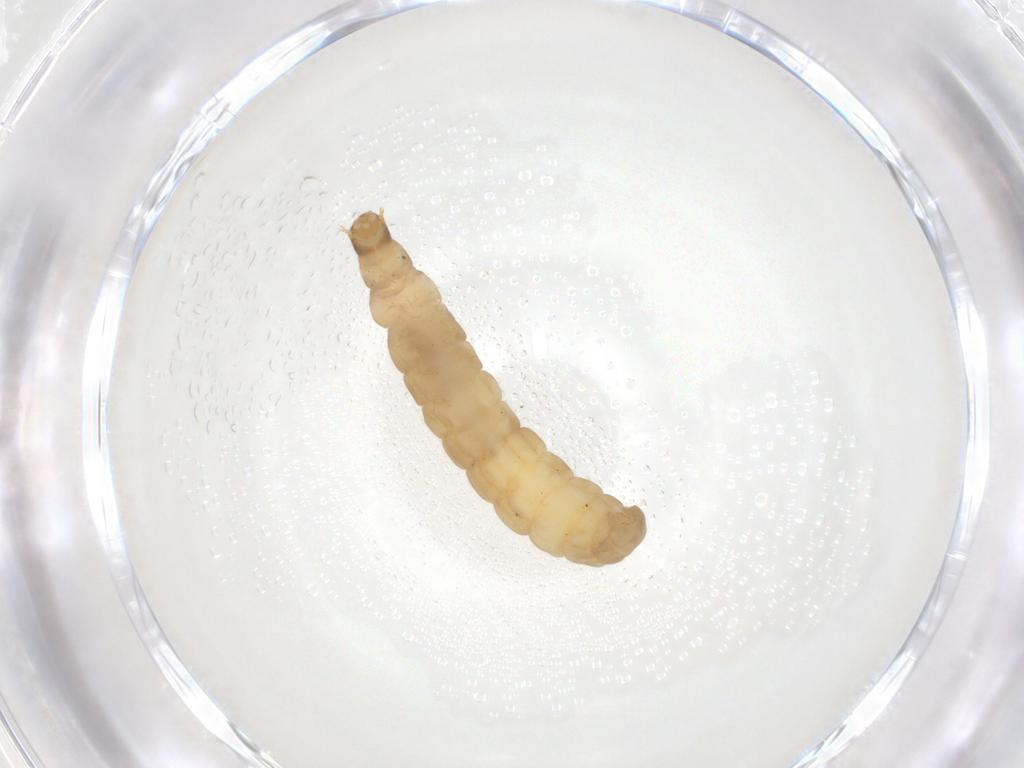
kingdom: Animalia
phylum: Arthropoda
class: Insecta
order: Coleoptera
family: Cantharidae
